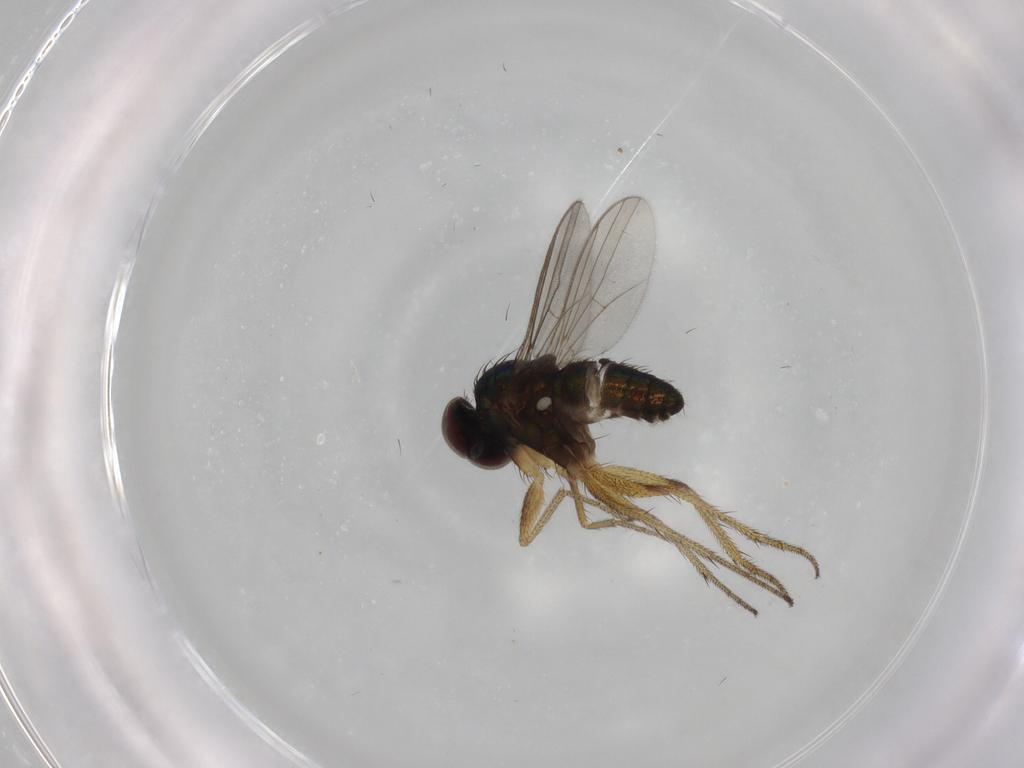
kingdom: Animalia
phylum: Arthropoda
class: Insecta
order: Diptera
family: Dolichopodidae
